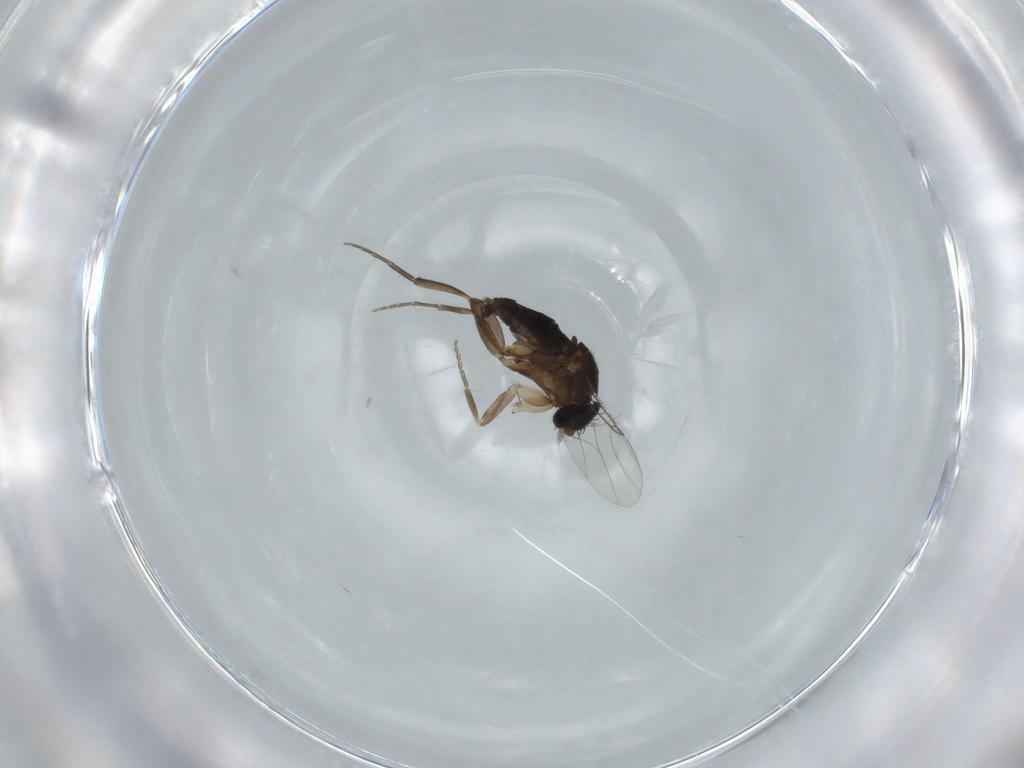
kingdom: Animalia
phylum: Arthropoda
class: Insecta
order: Diptera
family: Phoridae
